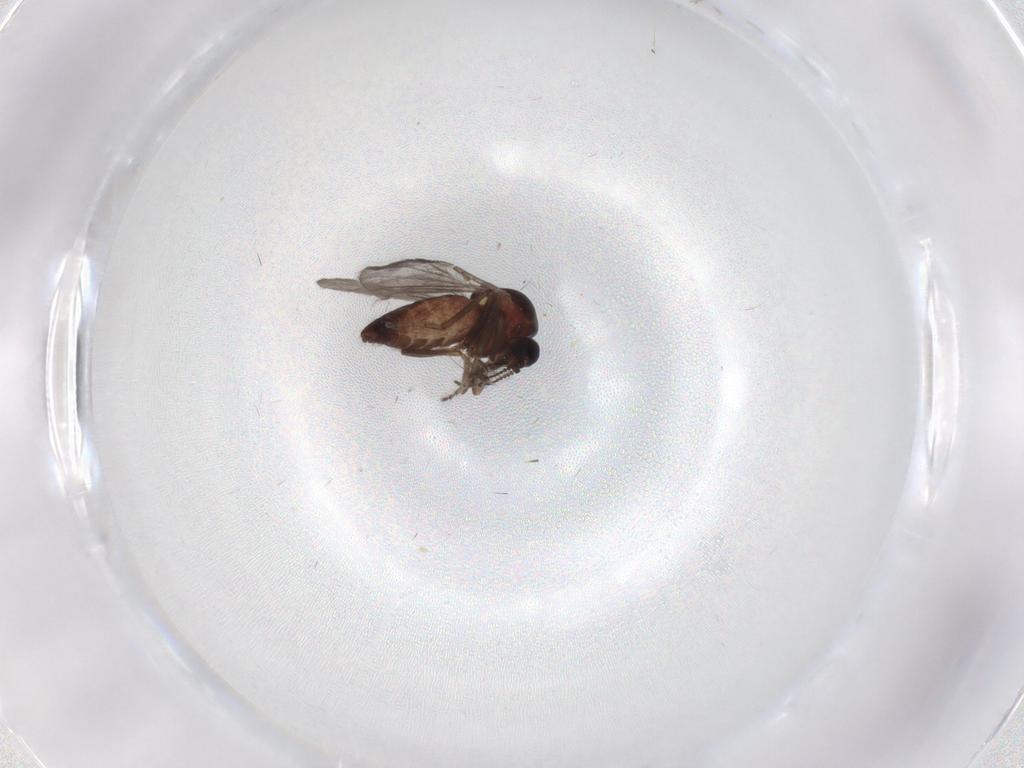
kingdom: Animalia
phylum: Arthropoda
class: Insecta
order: Diptera
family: Ceratopogonidae
